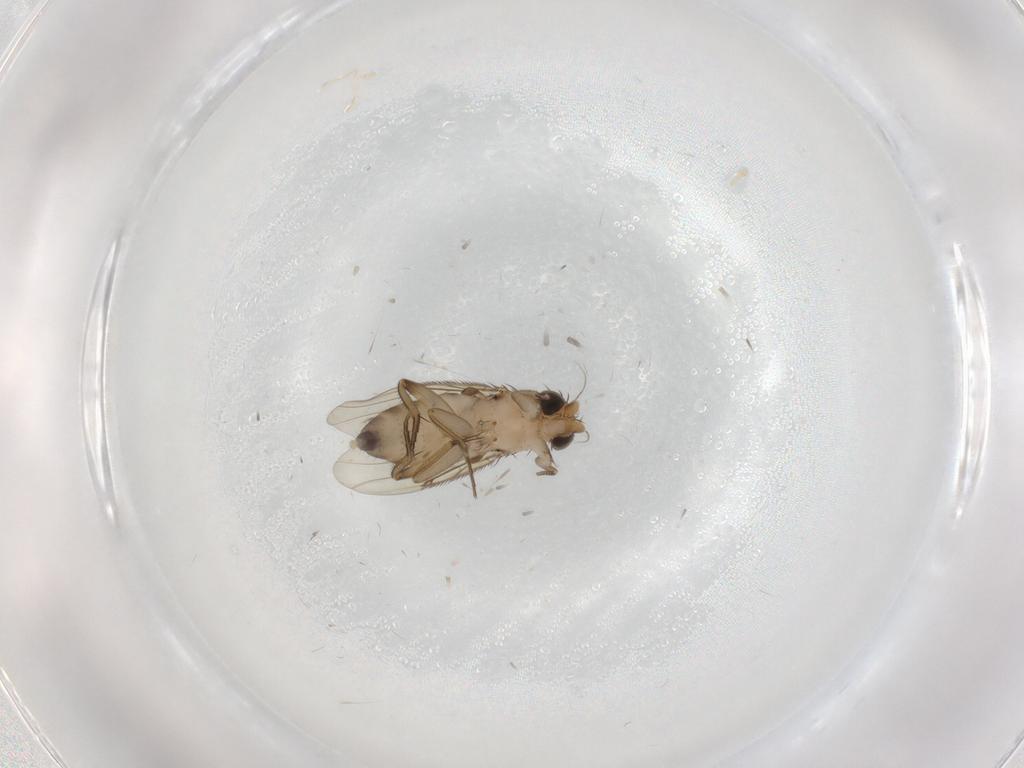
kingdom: Animalia
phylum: Arthropoda
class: Insecta
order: Diptera
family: Phoridae
